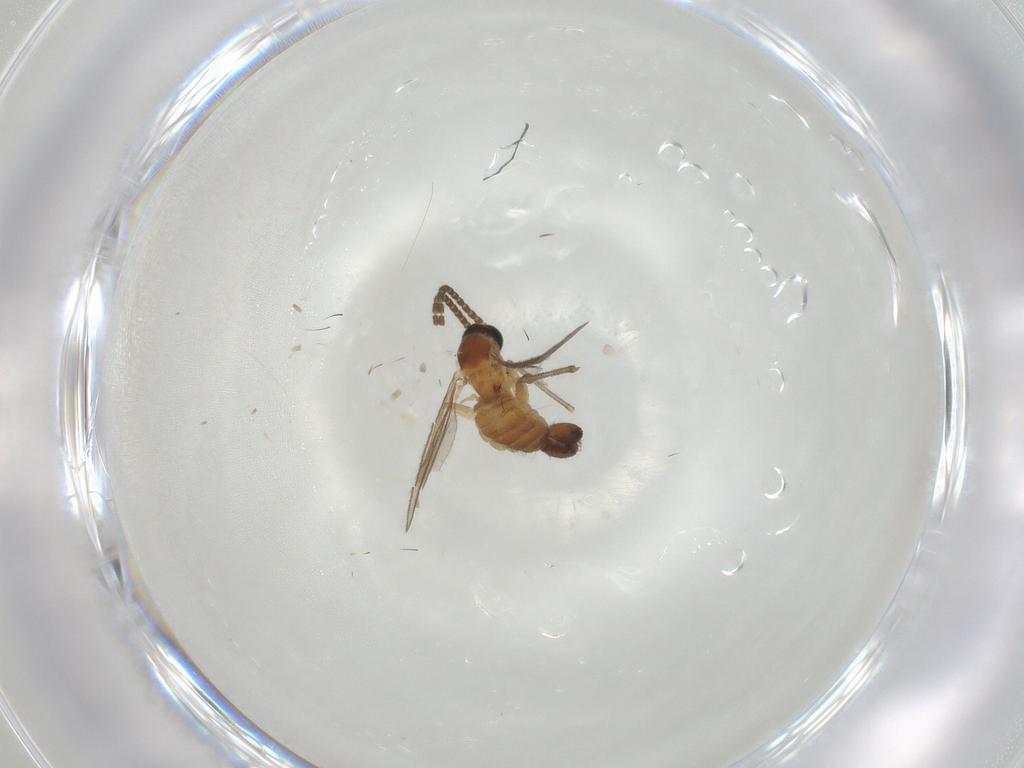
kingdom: Animalia
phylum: Arthropoda
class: Insecta
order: Diptera
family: Sciaridae
